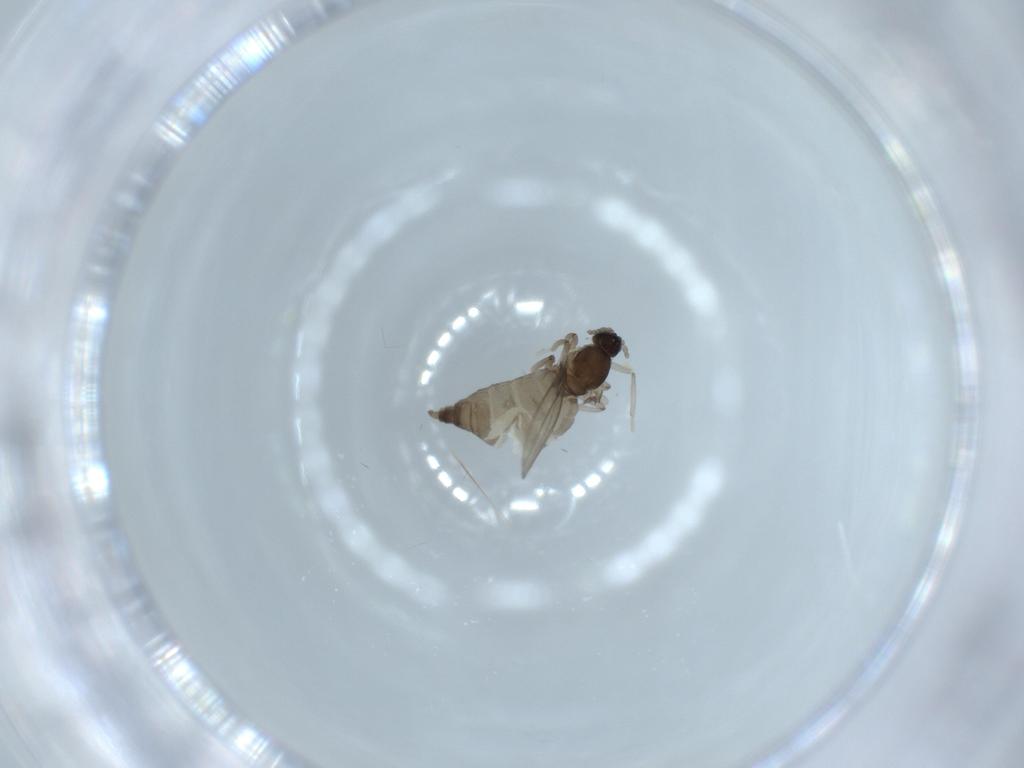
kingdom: Animalia
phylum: Arthropoda
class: Insecta
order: Diptera
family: Cecidomyiidae
